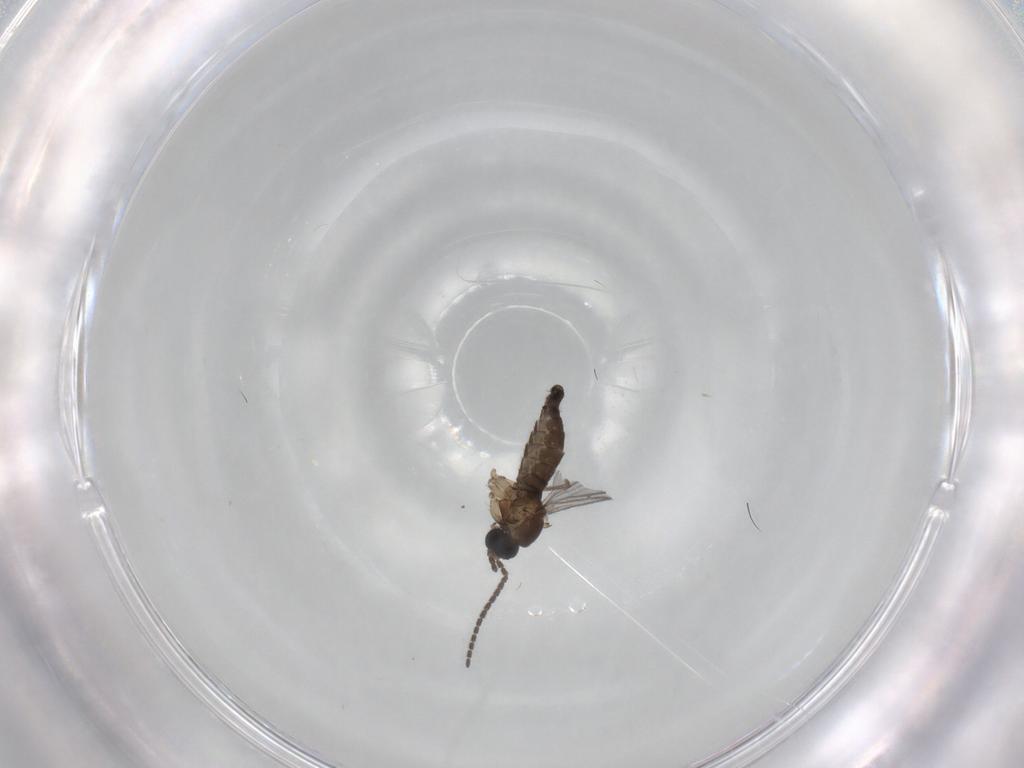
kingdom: Animalia
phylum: Arthropoda
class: Insecta
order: Diptera
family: Sciaridae
